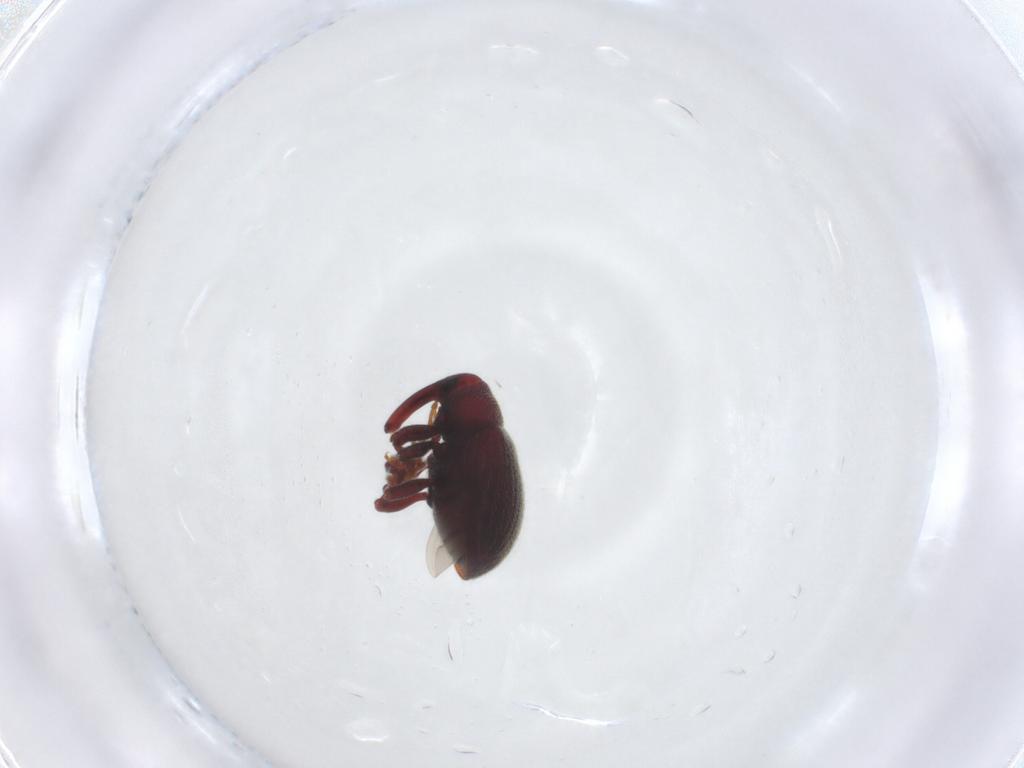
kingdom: Animalia
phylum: Arthropoda
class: Insecta
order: Coleoptera
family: Curculionidae
